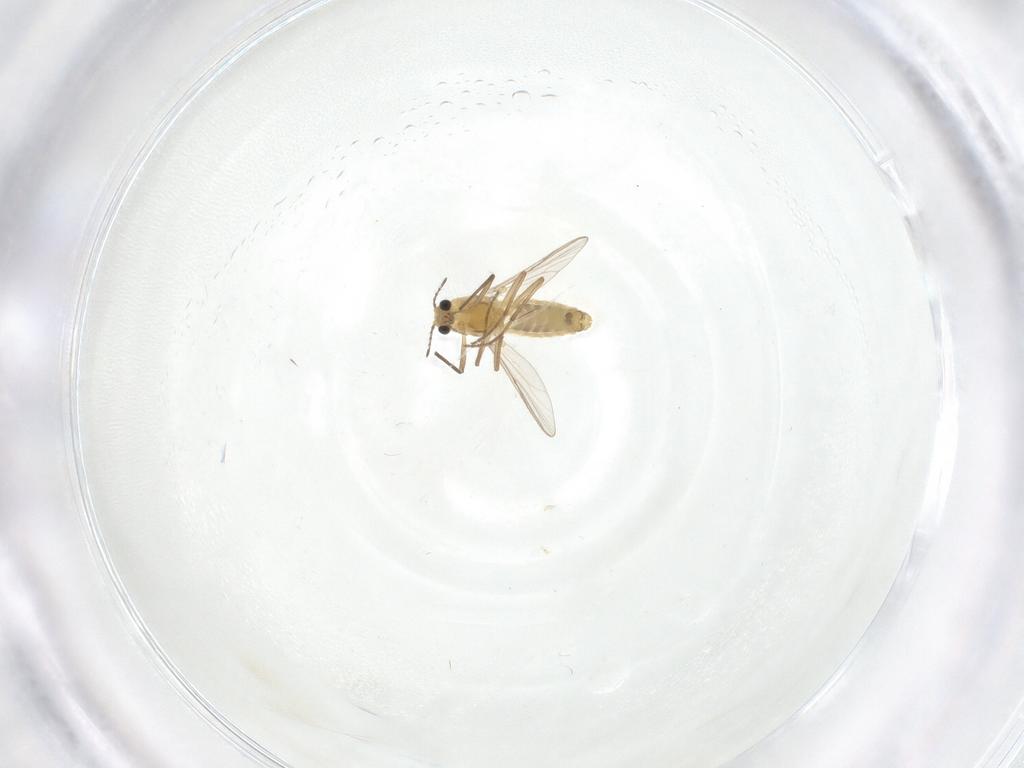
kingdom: Animalia
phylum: Arthropoda
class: Insecta
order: Diptera
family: Chironomidae
